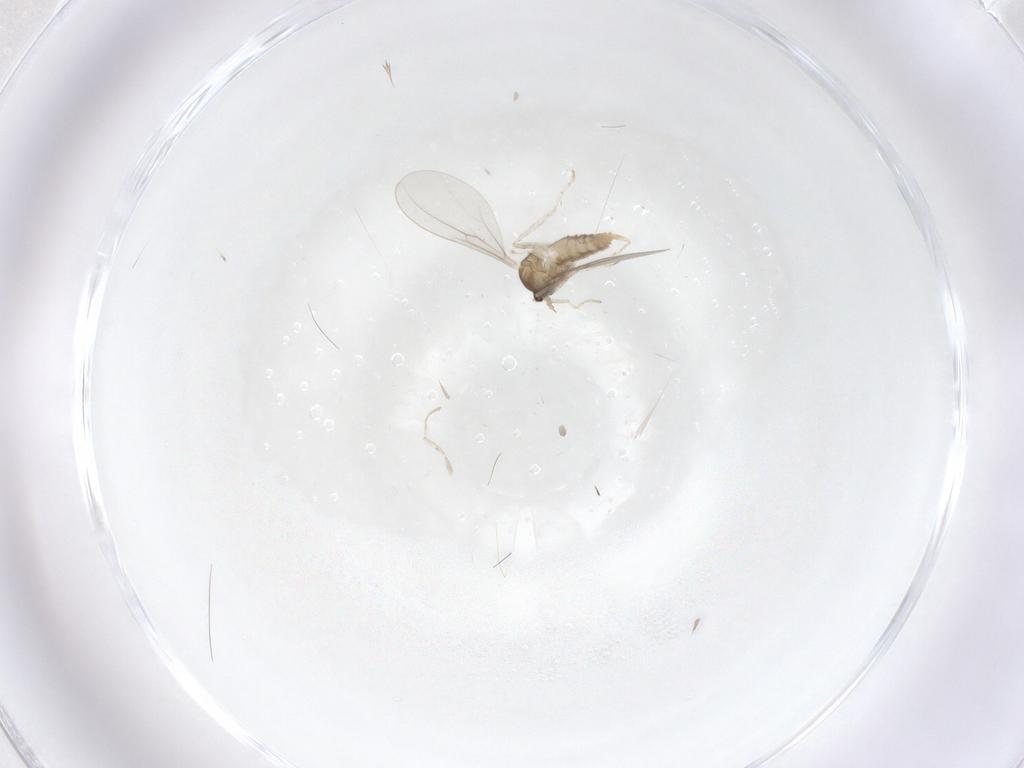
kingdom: Animalia
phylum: Arthropoda
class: Insecta
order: Diptera
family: Cecidomyiidae
